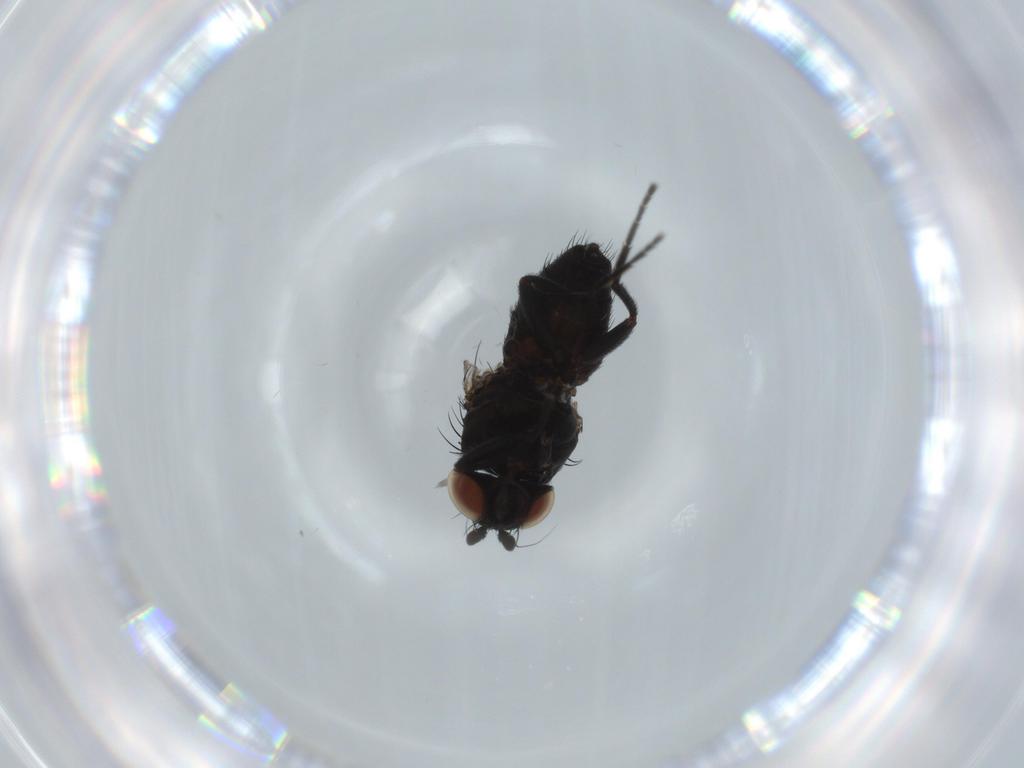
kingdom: Animalia
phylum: Arthropoda
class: Insecta
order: Diptera
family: Milichiidae
